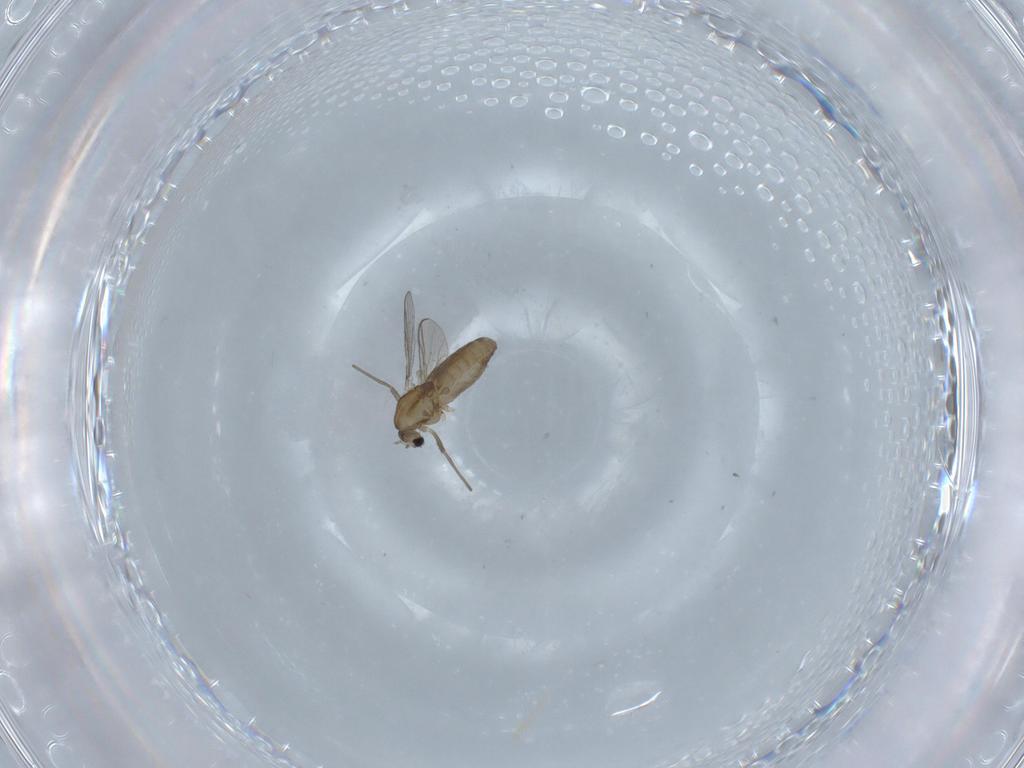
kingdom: Animalia
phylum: Arthropoda
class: Insecta
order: Diptera
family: Chironomidae
